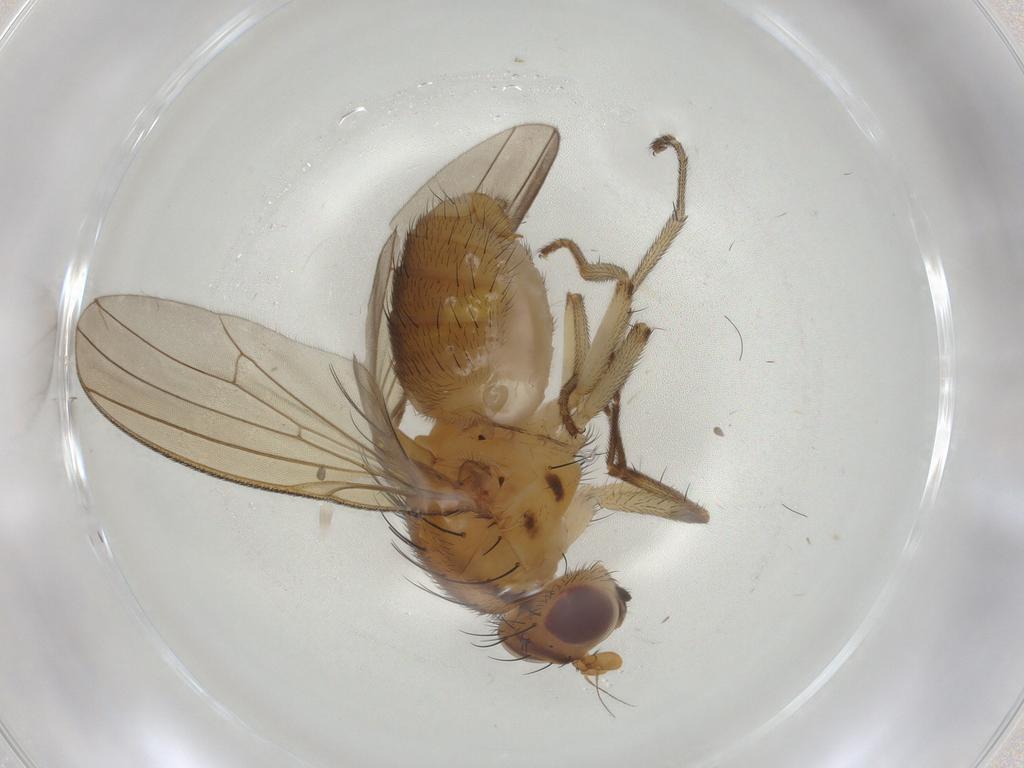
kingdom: Animalia
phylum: Arthropoda
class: Insecta
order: Diptera
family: Lauxaniidae
